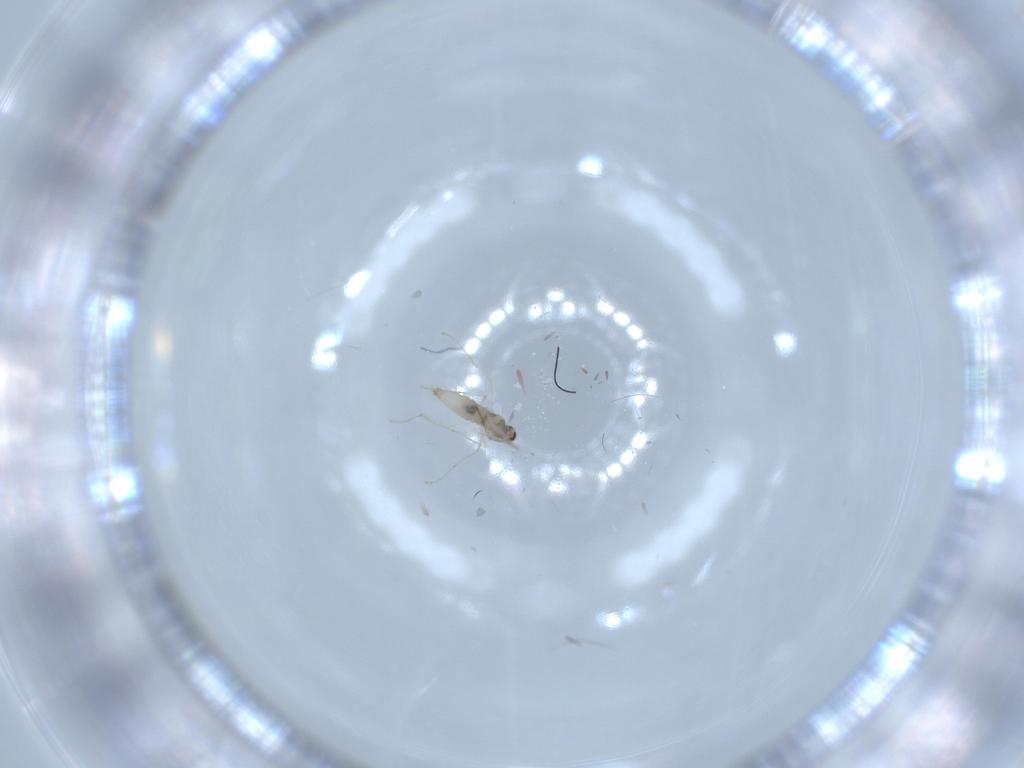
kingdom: Animalia
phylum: Arthropoda
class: Insecta
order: Diptera
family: Cecidomyiidae
